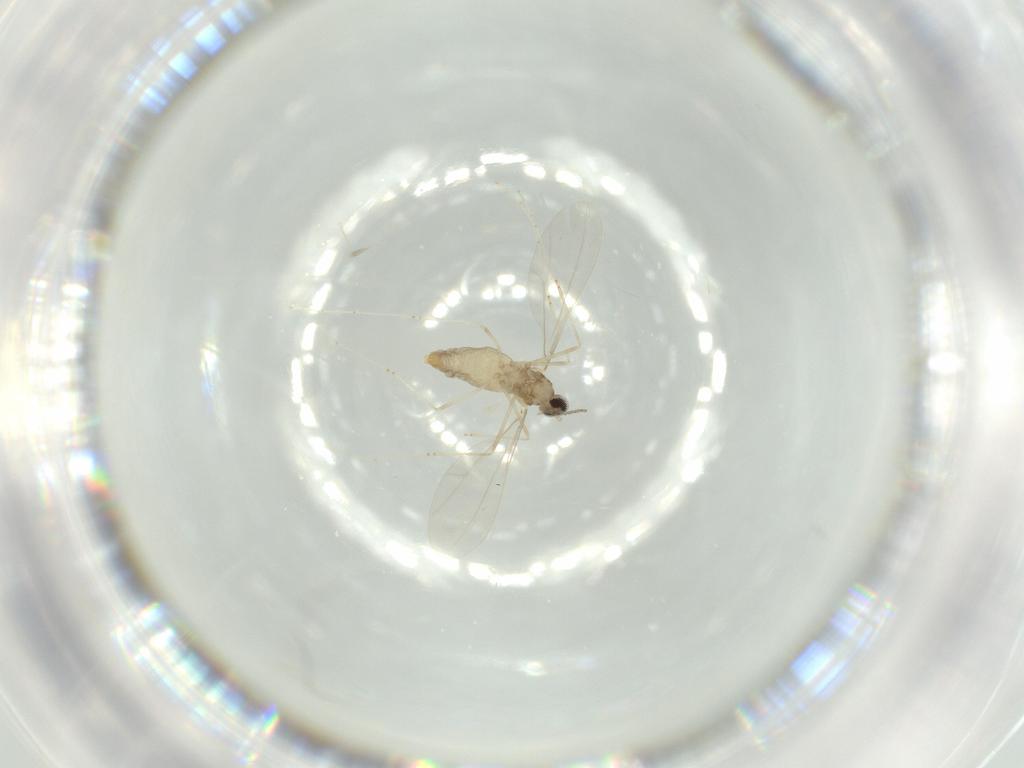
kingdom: Animalia
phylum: Arthropoda
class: Insecta
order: Diptera
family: Cecidomyiidae
